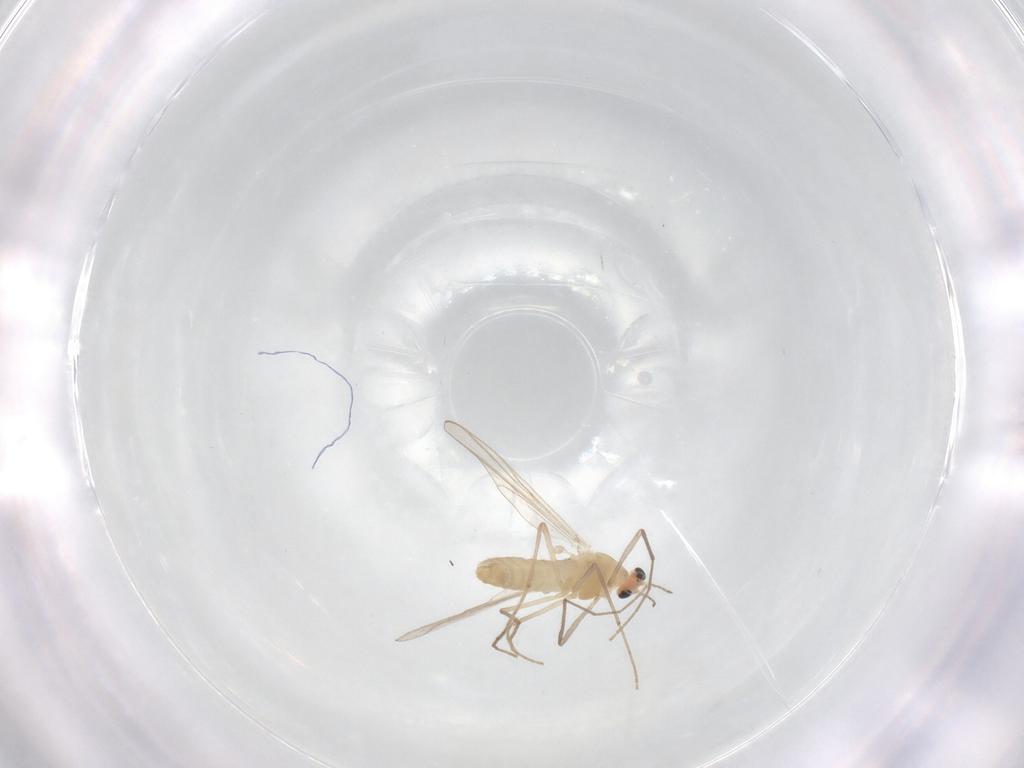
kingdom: Animalia
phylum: Arthropoda
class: Insecta
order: Diptera
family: Chironomidae
